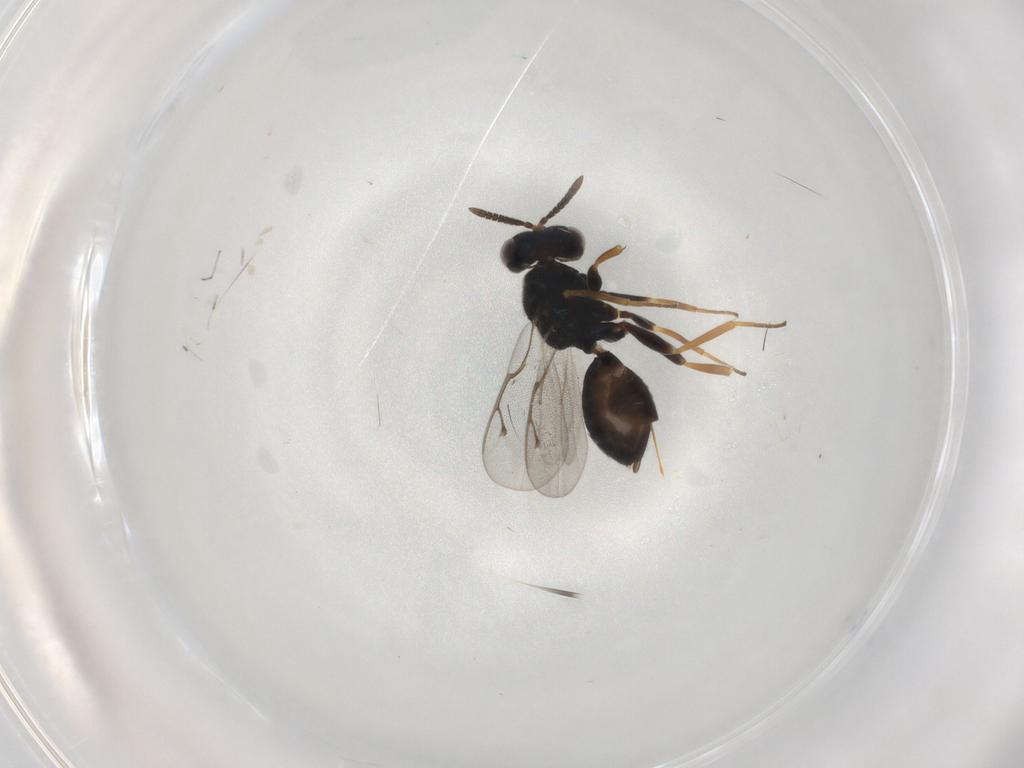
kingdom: Animalia
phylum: Arthropoda
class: Insecta
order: Hymenoptera
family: Pteromalidae
